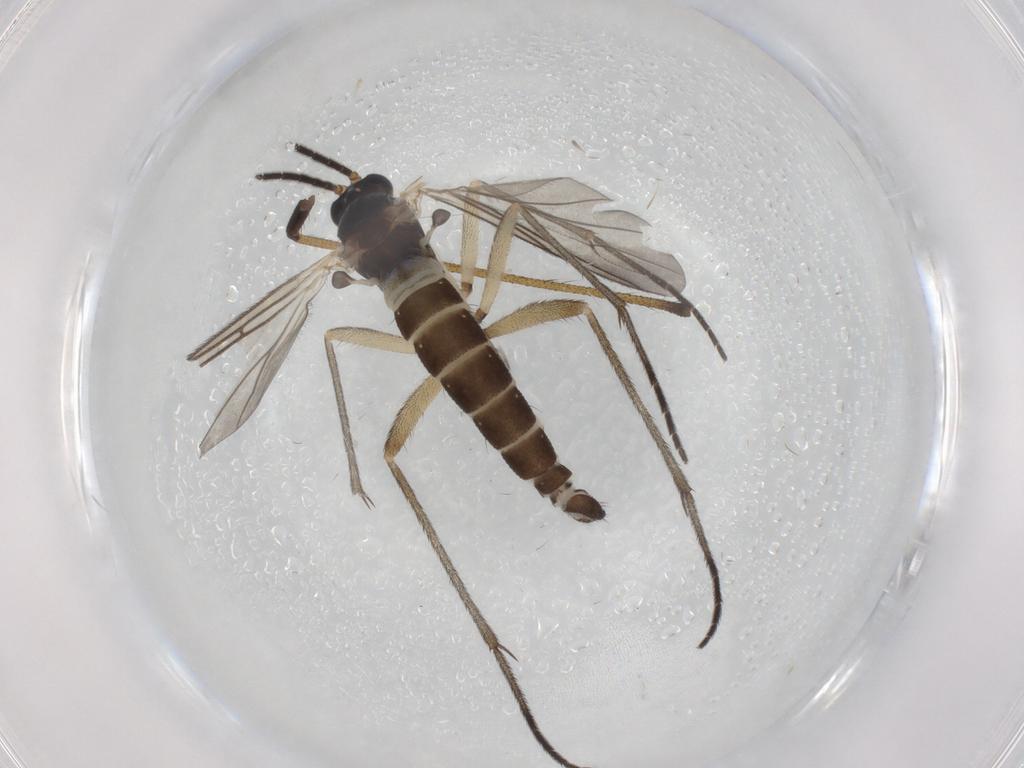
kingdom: Animalia
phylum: Arthropoda
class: Insecta
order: Diptera
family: Sciaridae
